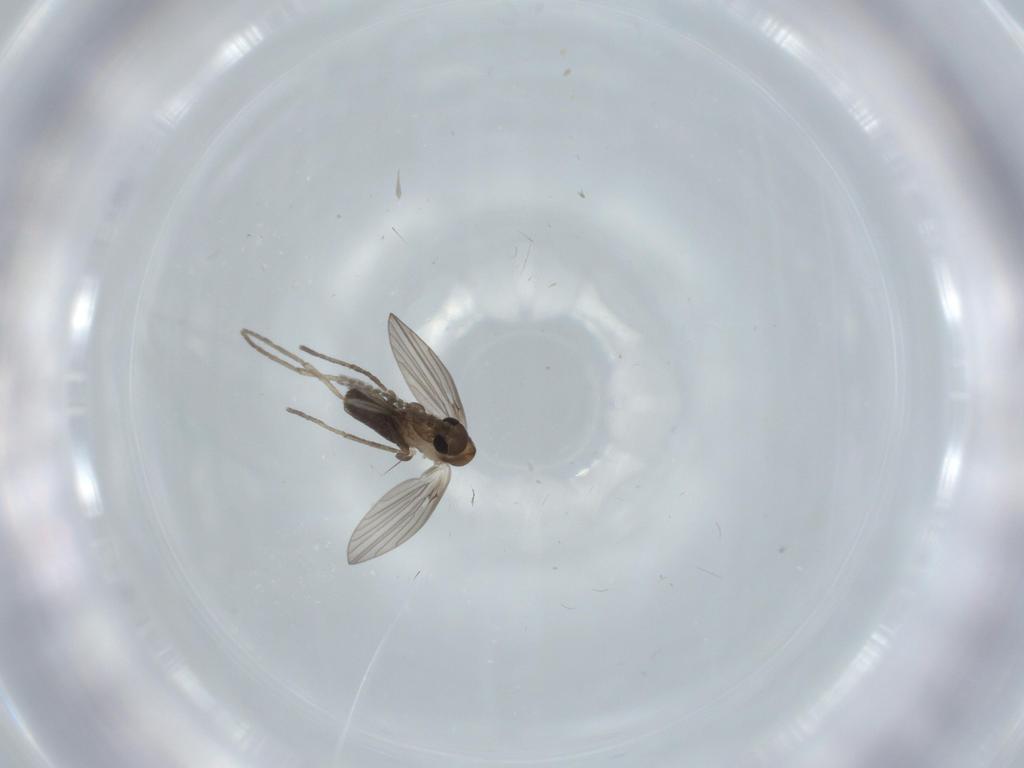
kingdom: Animalia
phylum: Arthropoda
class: Insecta
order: Diptera
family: Psychodidae
